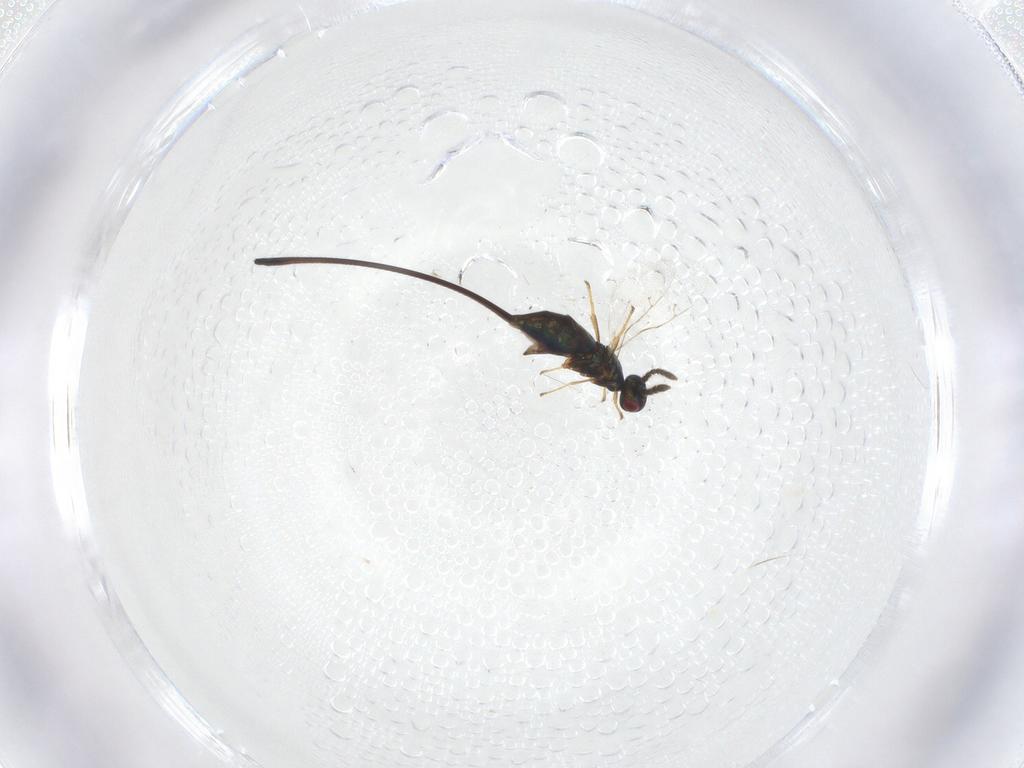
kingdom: Animalia
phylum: Arthropoda
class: Insecta
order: Hymenoptera
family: Pteromalidae
